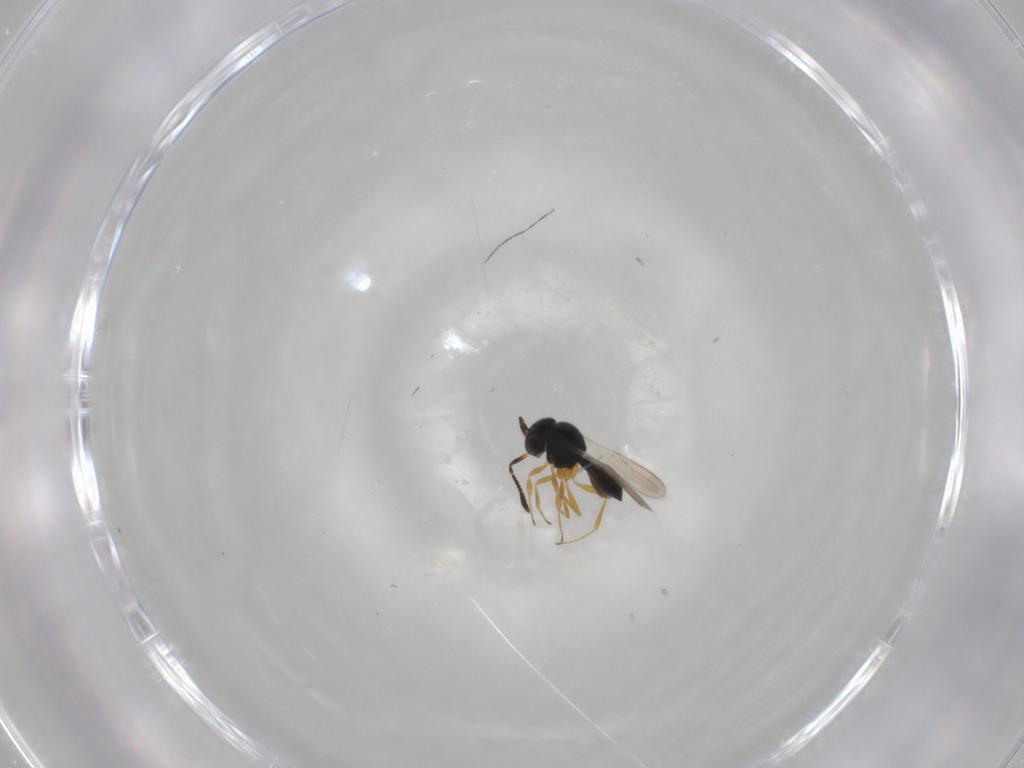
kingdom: Animalia
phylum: Arthropoda
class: Insecta
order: Hymenoptera
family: Scelionidae
